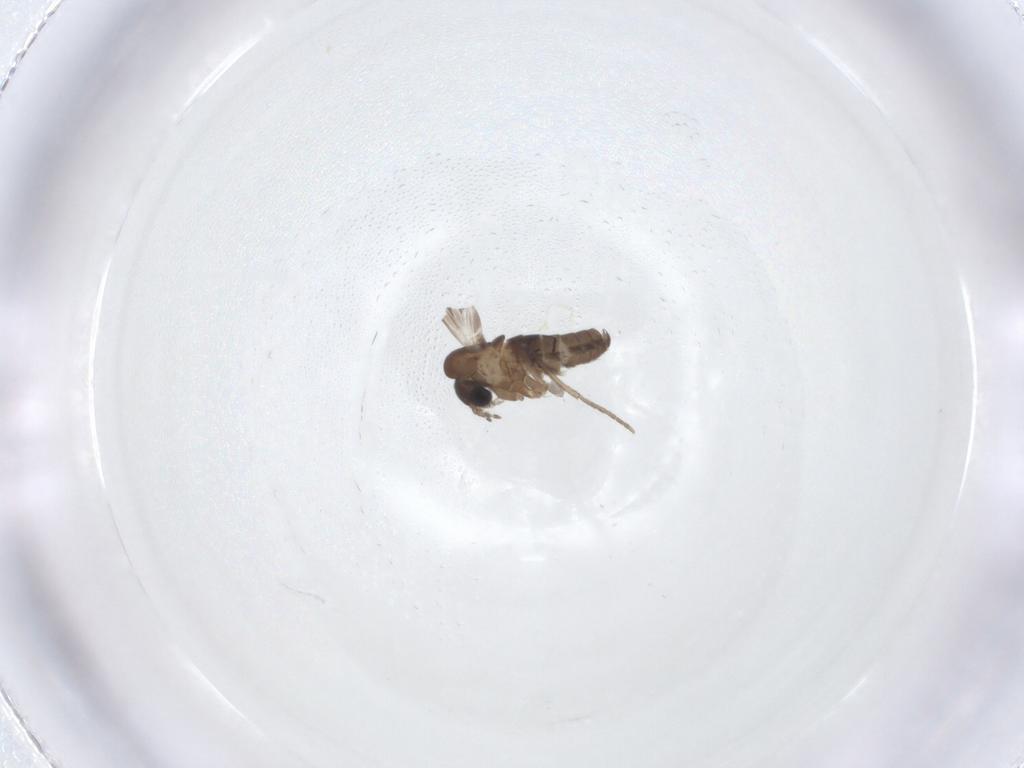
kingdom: Animalia
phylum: Arthropoda
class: Insecta
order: Diptera
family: Psychodidae
